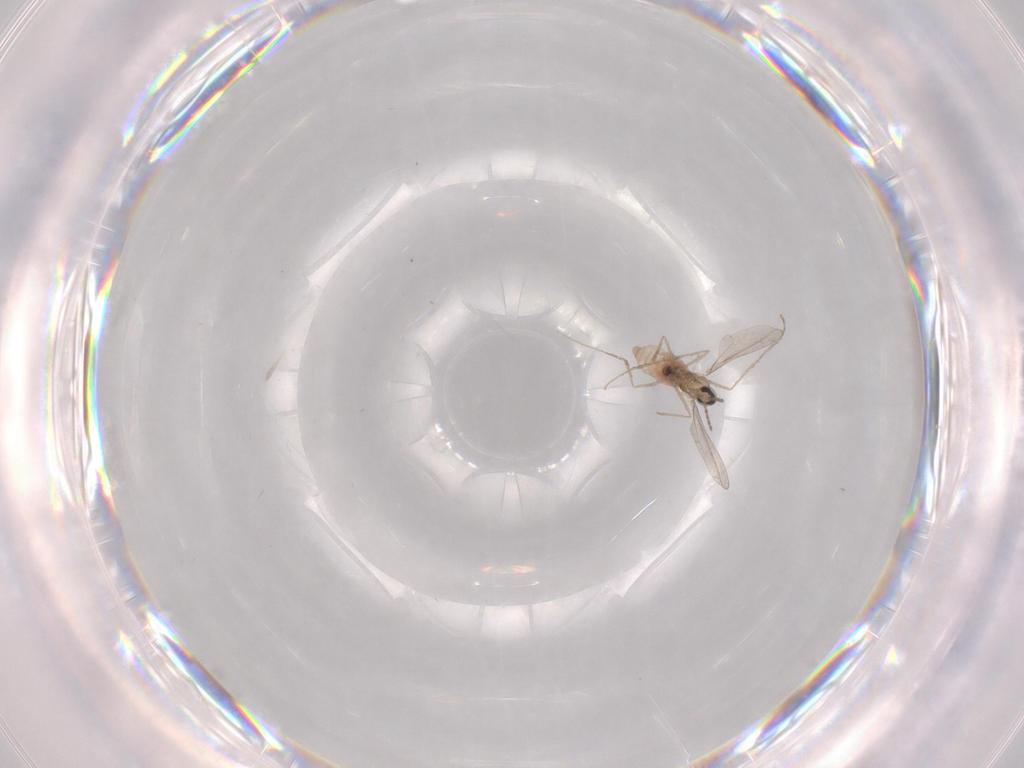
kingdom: Animalia
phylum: Arthropoda
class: Insecta
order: Diptera
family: Cecidomyiidae
